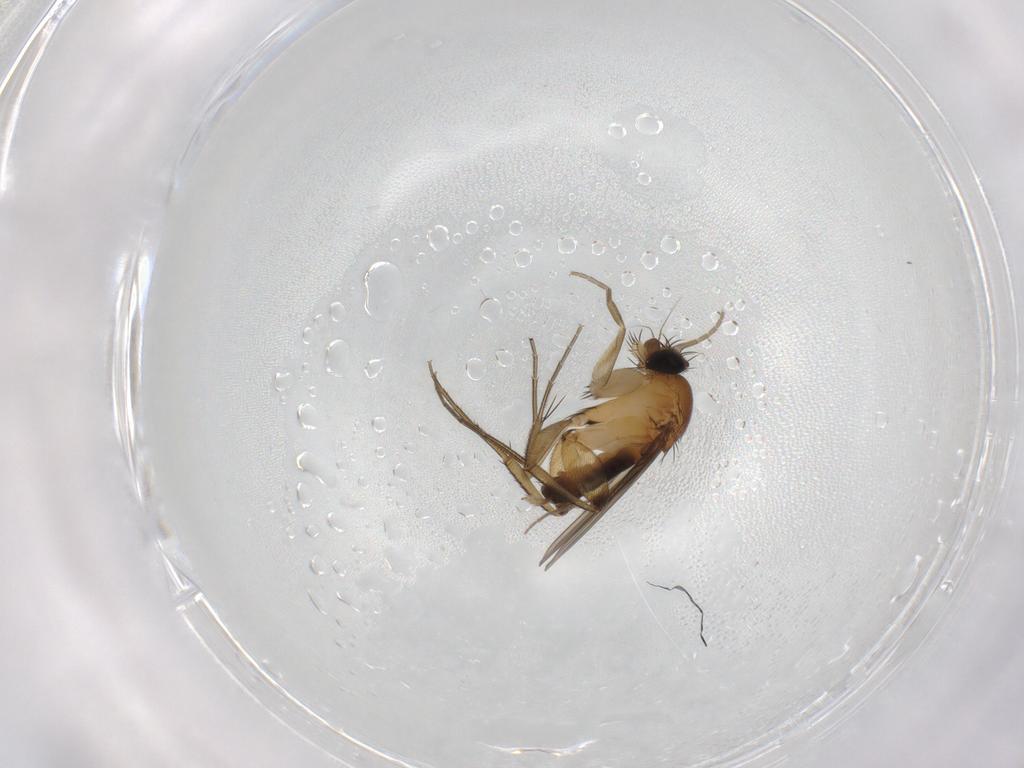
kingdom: Animalia
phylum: Arthropoda
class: Insecta
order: Diptera
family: Phoridae
